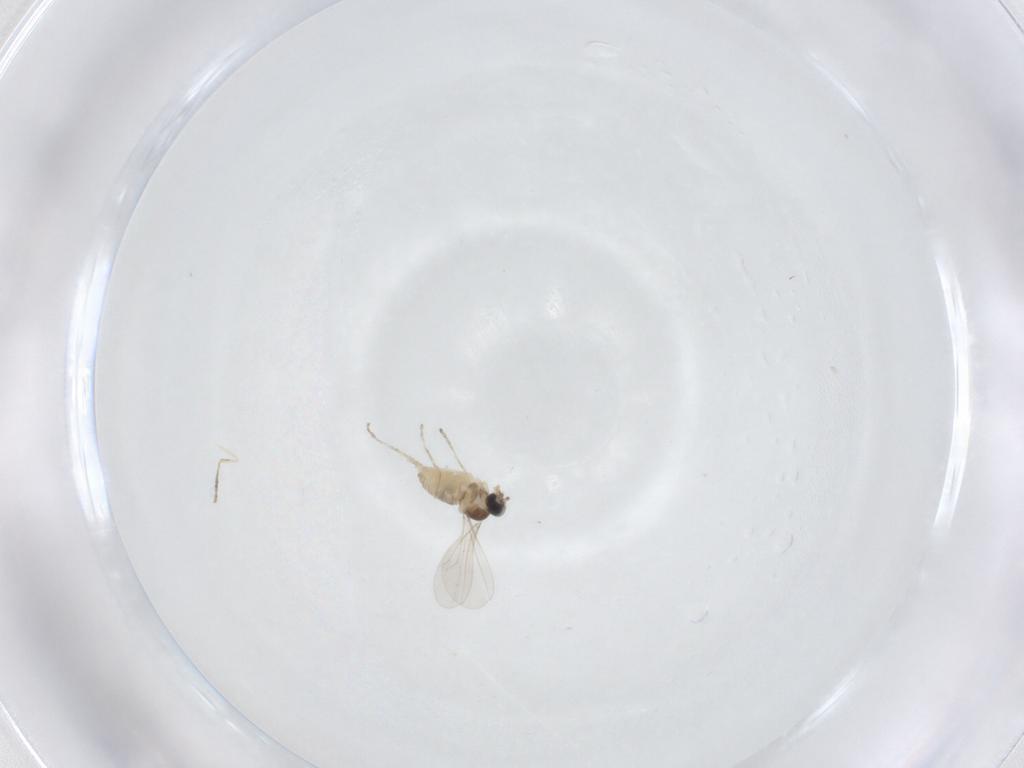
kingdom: Animalia
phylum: Arthropoda
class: Insecta
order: Diptera
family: Cecidomyiidae
